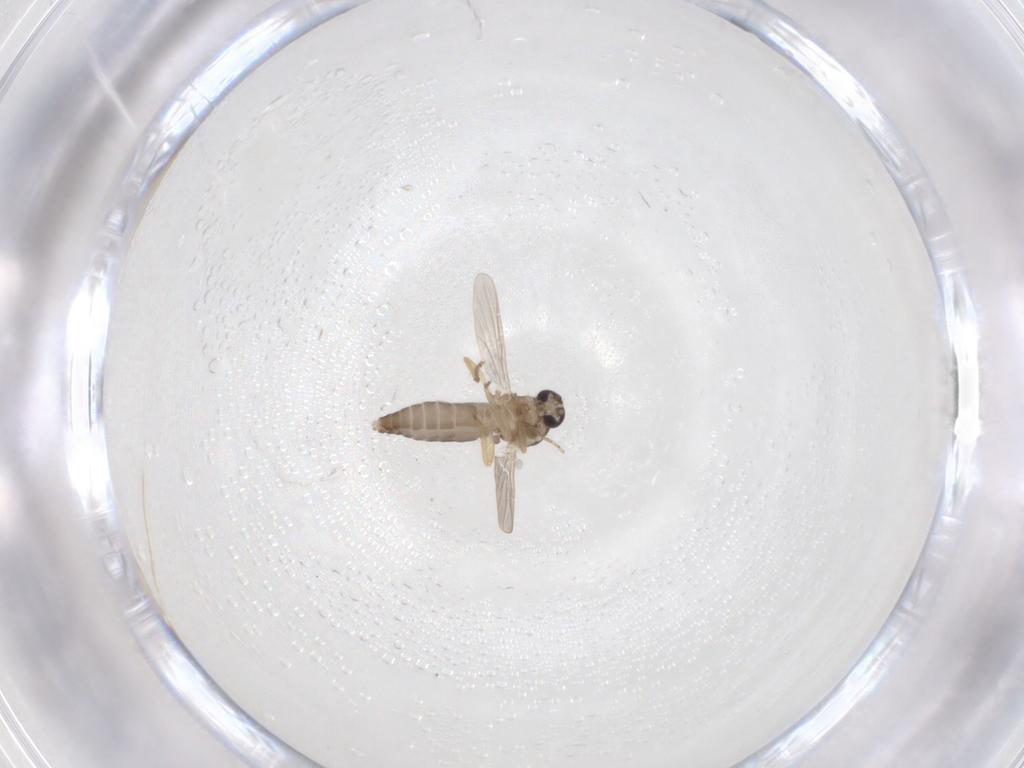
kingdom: Animalia
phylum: Arthropoda
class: Insecta
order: Diptera
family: Ceratopogonidae
